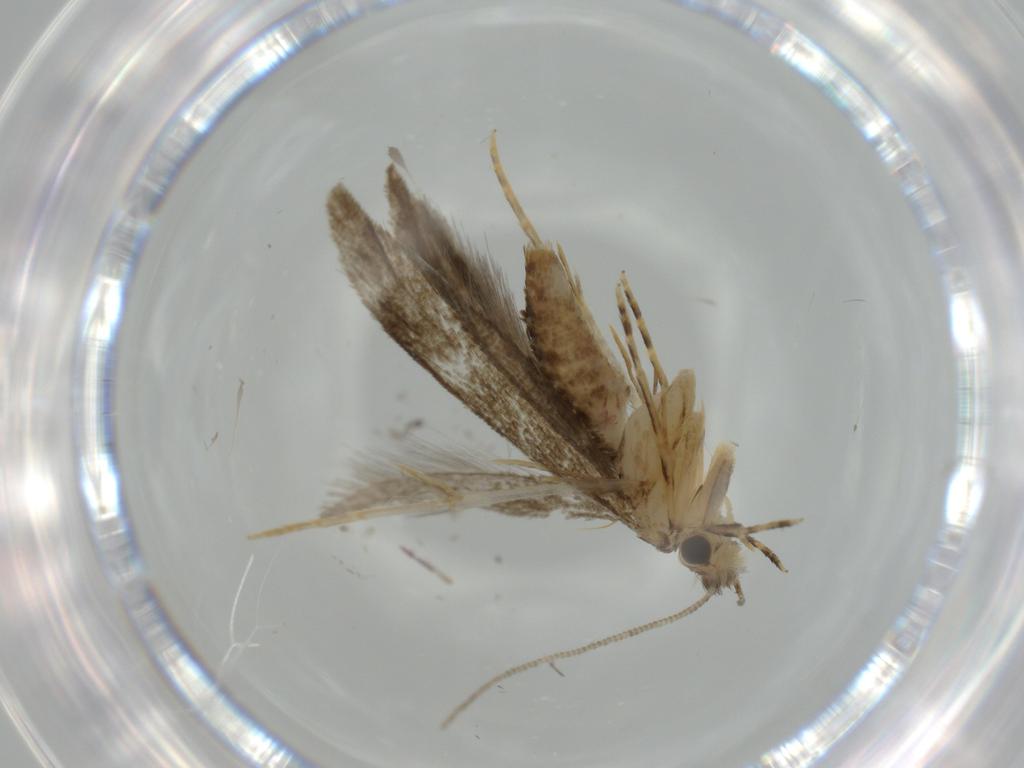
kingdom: Animalia
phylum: Arthropoda
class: Insecta
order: Lepidoptera
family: Meessiidae
